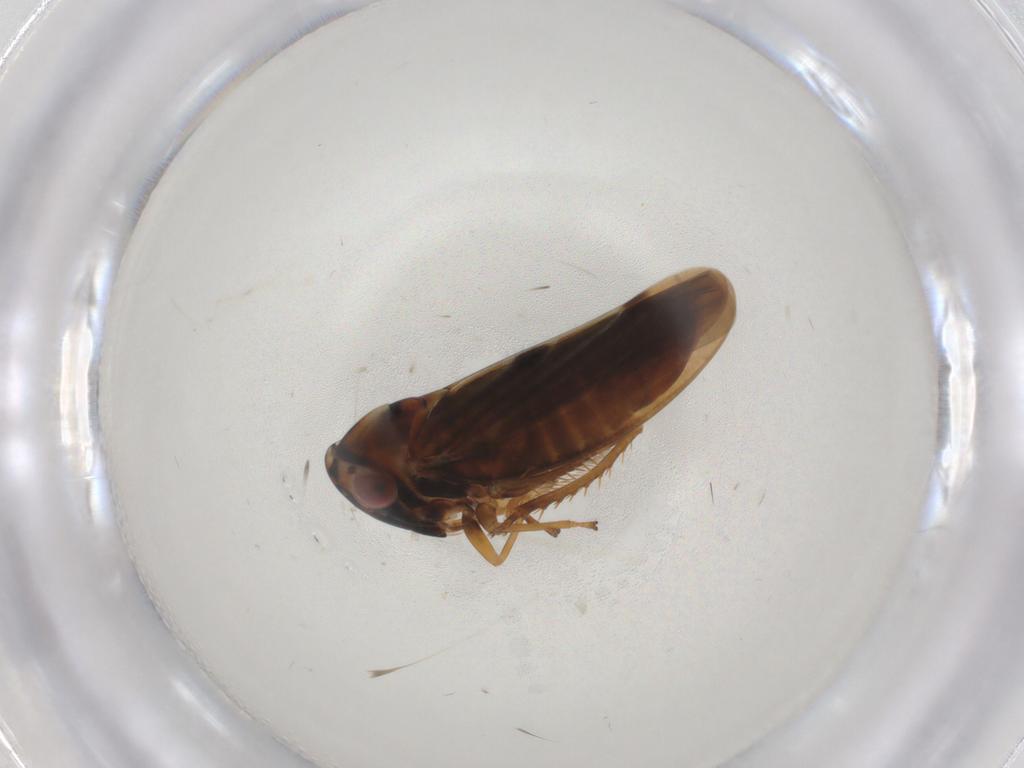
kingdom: Animalia
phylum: Arthropoda
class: Insecta
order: Hemiptera
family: Cicadellidae
